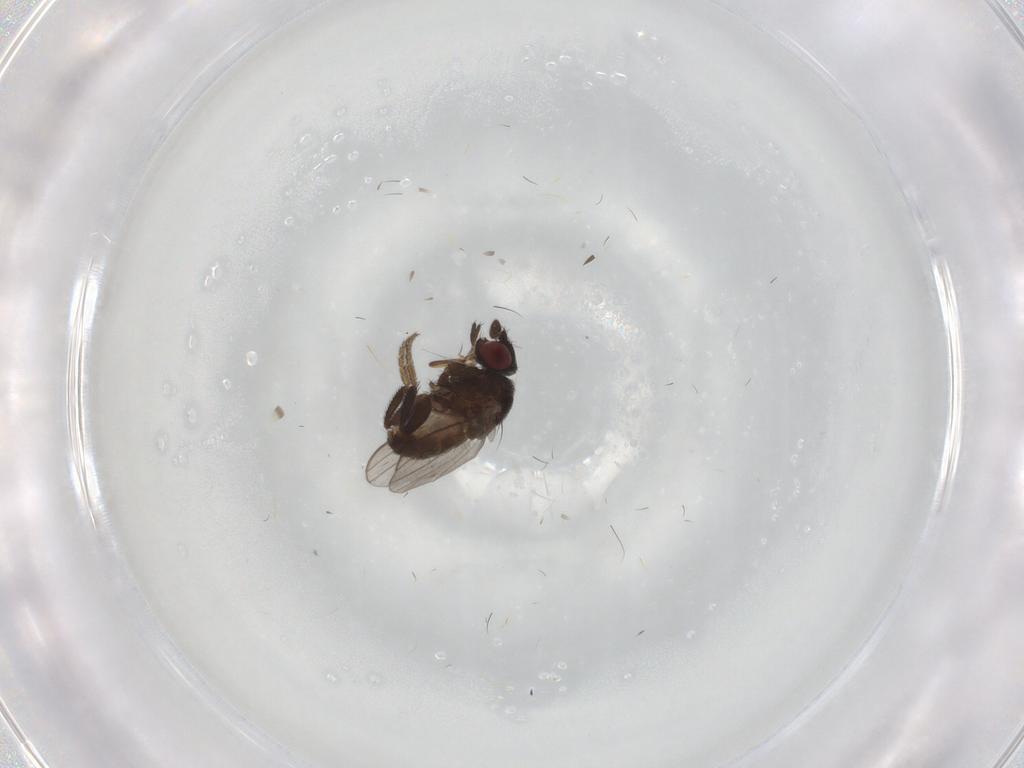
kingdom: Animalia
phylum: Arthropoda
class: Insecta
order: Diptera
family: Milichiidae
